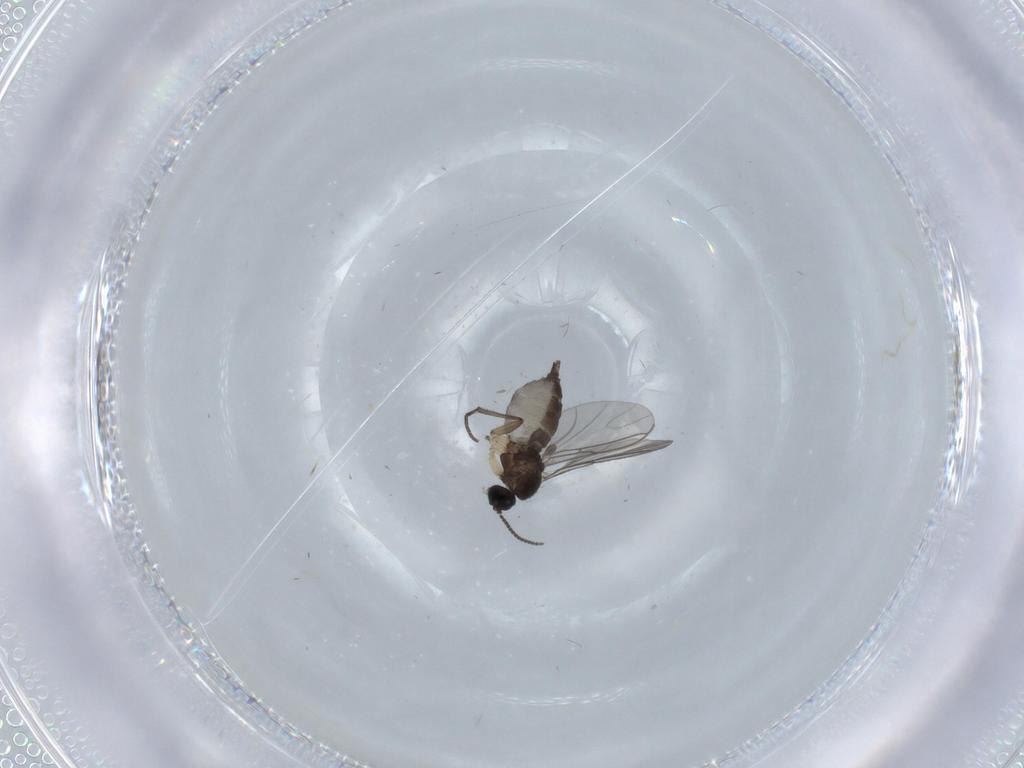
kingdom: Animalia
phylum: Arthropoda
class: Insecta
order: Diptera
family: Sciaridae
